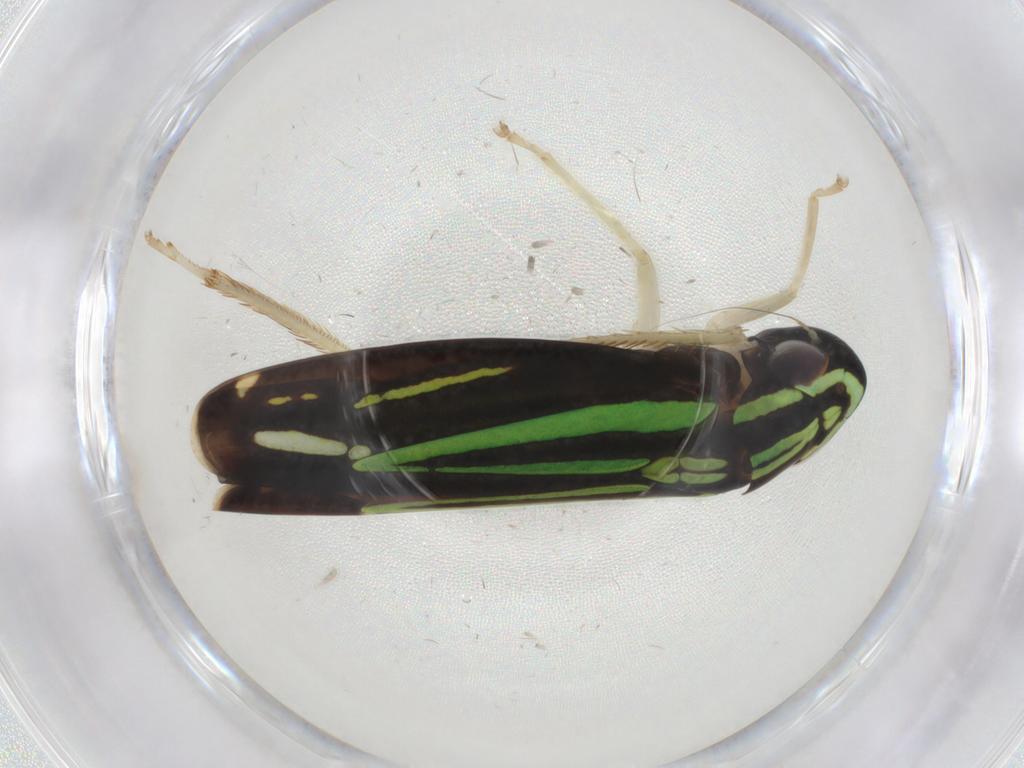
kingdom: Animalia
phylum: Arthropoda
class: Insecta
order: Hemiptera
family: Cicadellidae
